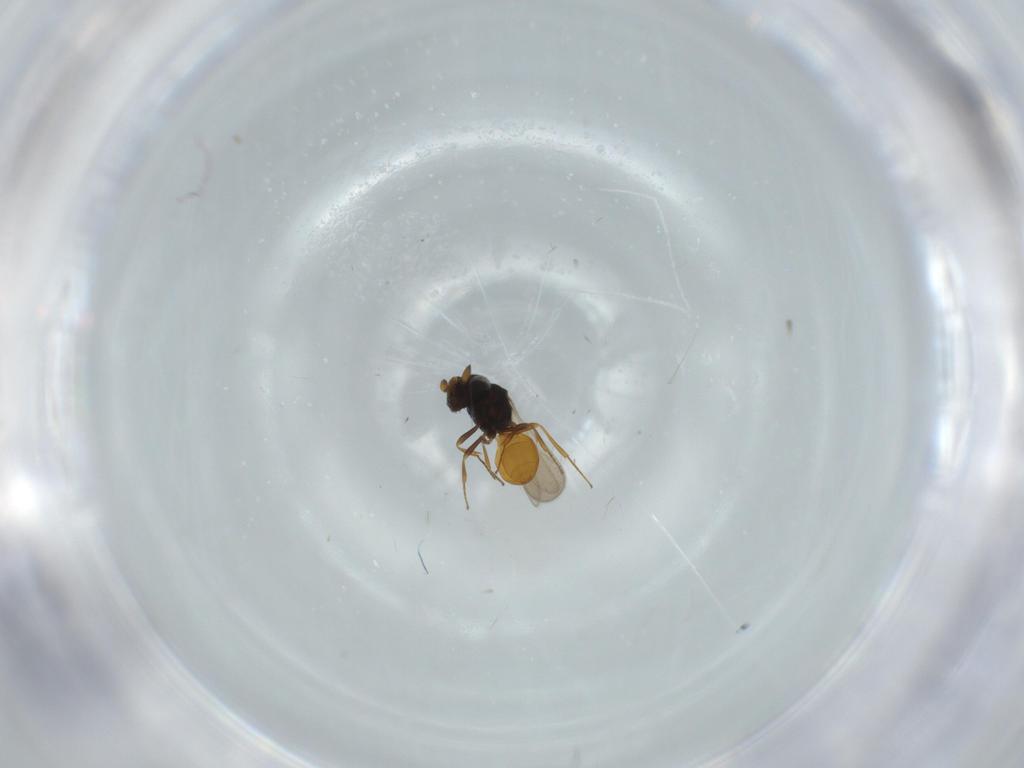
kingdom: Animalia
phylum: Arthropoda
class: Insecta
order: Hymenoptera
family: Scelionidae
